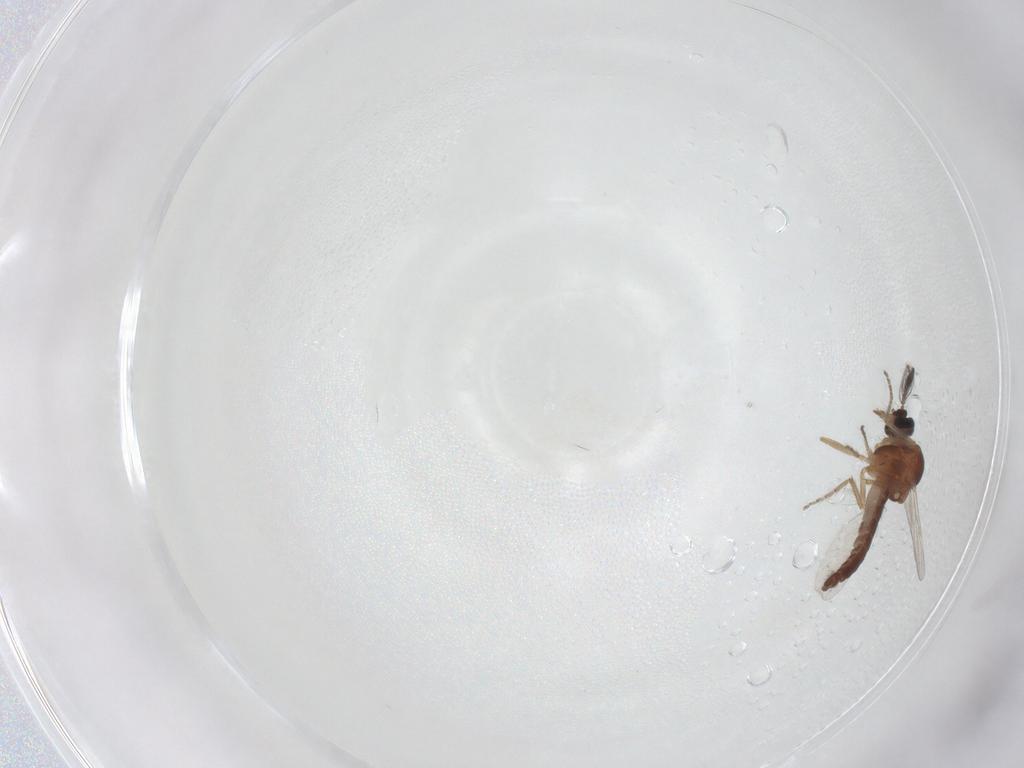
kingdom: Animalia
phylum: Arthropoda
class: Insecta
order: Diptera
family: Ceratopogonidae
